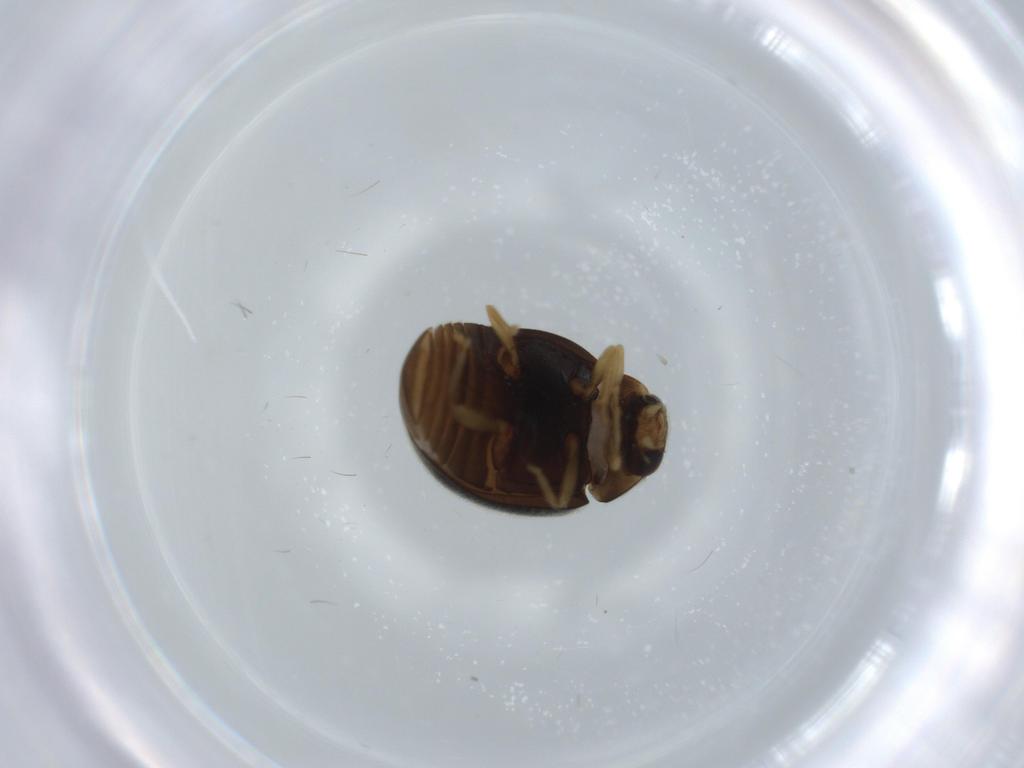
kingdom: Animalia
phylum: Arthropoda
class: Insecta
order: Coleoptera
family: Coccinellidae
